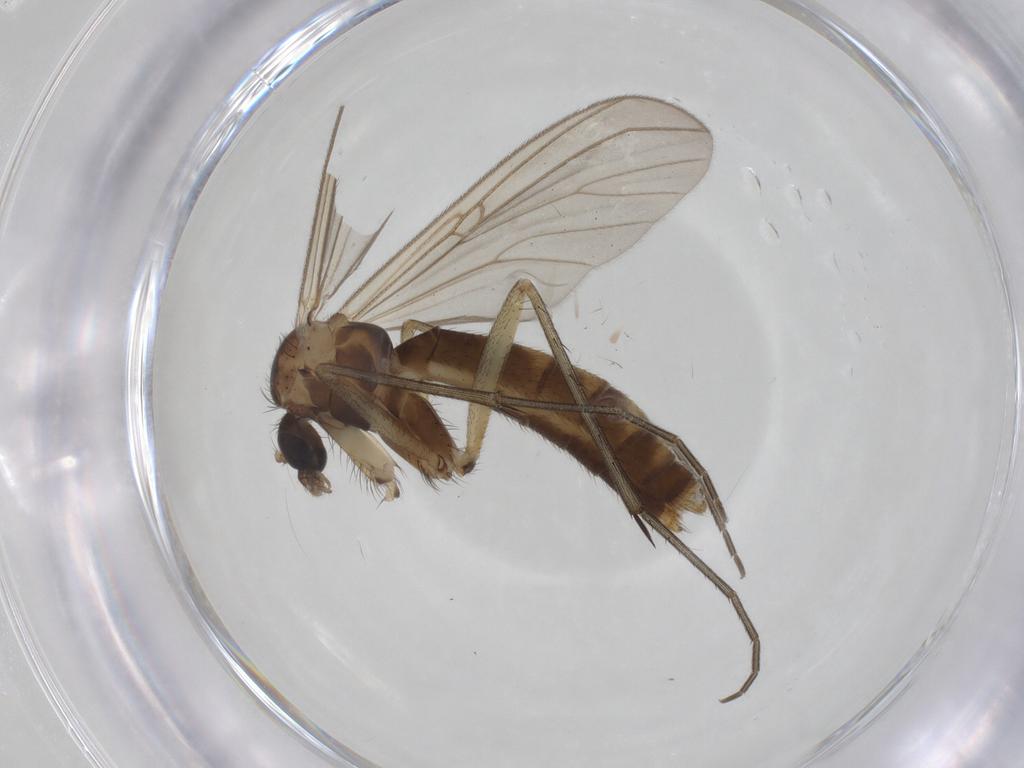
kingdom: Animalia
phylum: Arthropoda
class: Insecta
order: Diptera
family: Mycetophilidae
